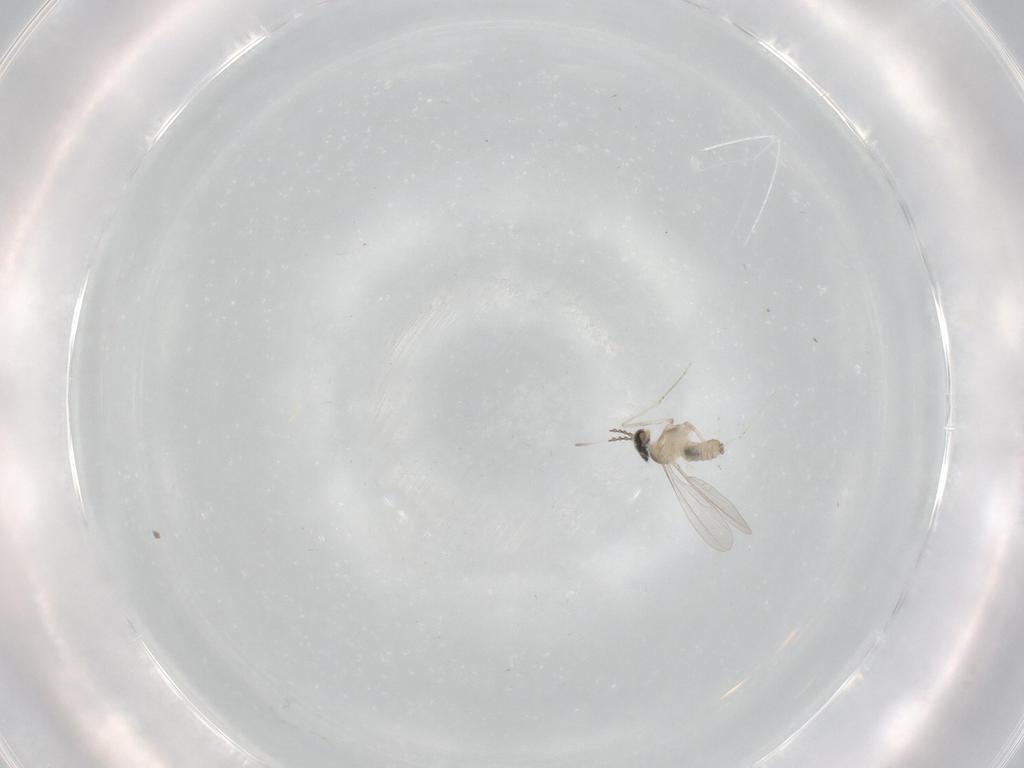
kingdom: Animalia
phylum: Arthropoda
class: Insecta
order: Diptera
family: Cecidomyiidae
